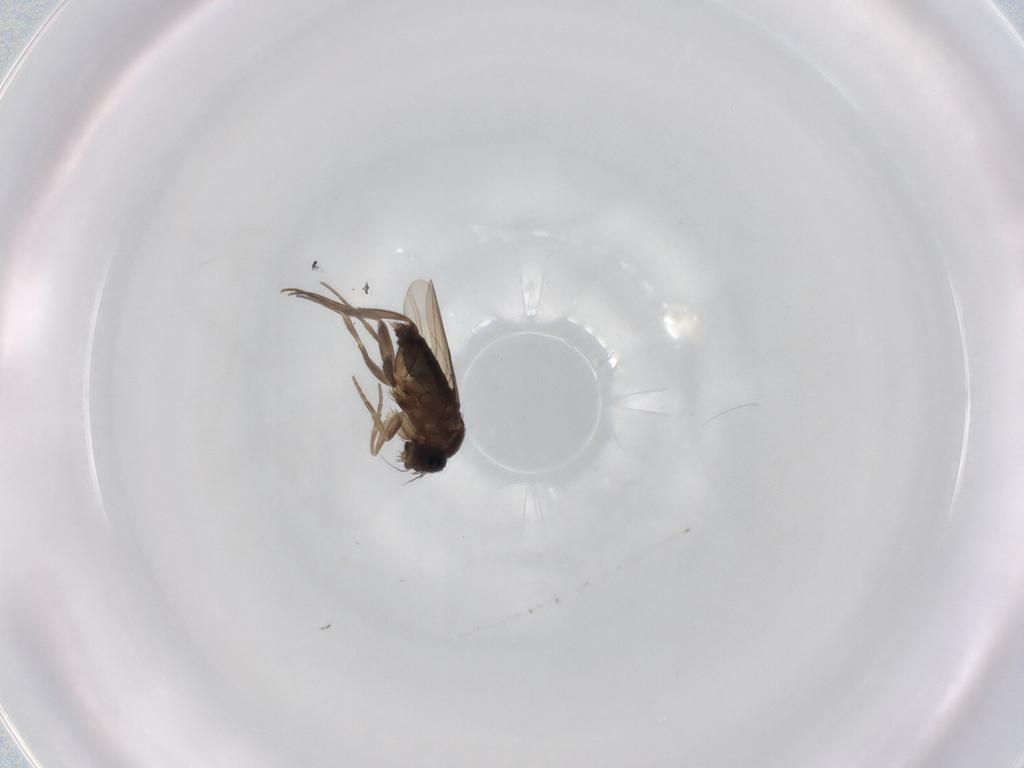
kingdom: Animalia
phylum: Arthropoda
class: Insecta
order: Diptera
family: Phoridae
